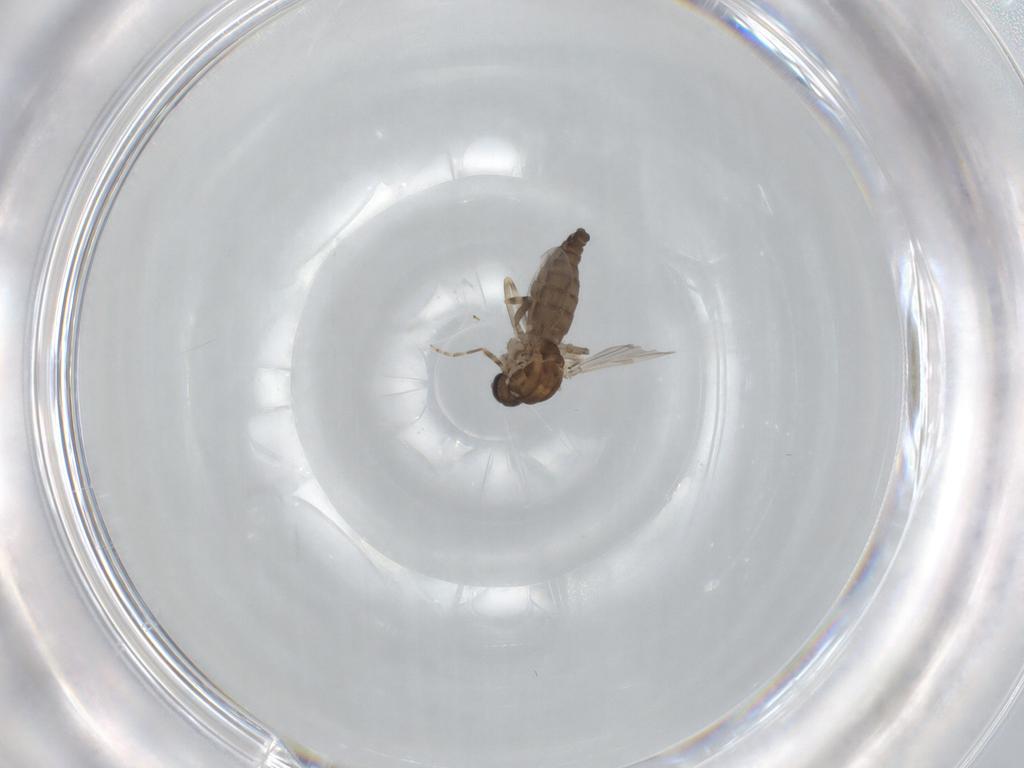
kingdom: Animalia
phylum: Arthropoda
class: Insecta
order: Diptera
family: Ceratopogonidae
